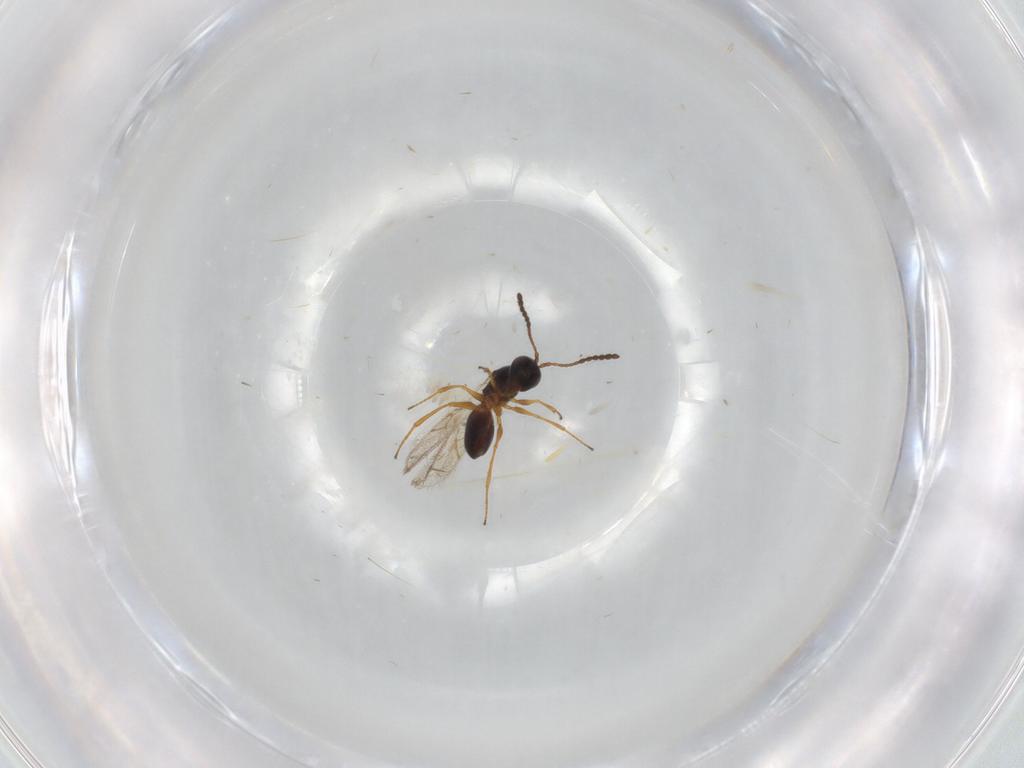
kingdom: Animalia
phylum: Arthropoda
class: Insecta
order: Hymenoptera
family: Figitidae
